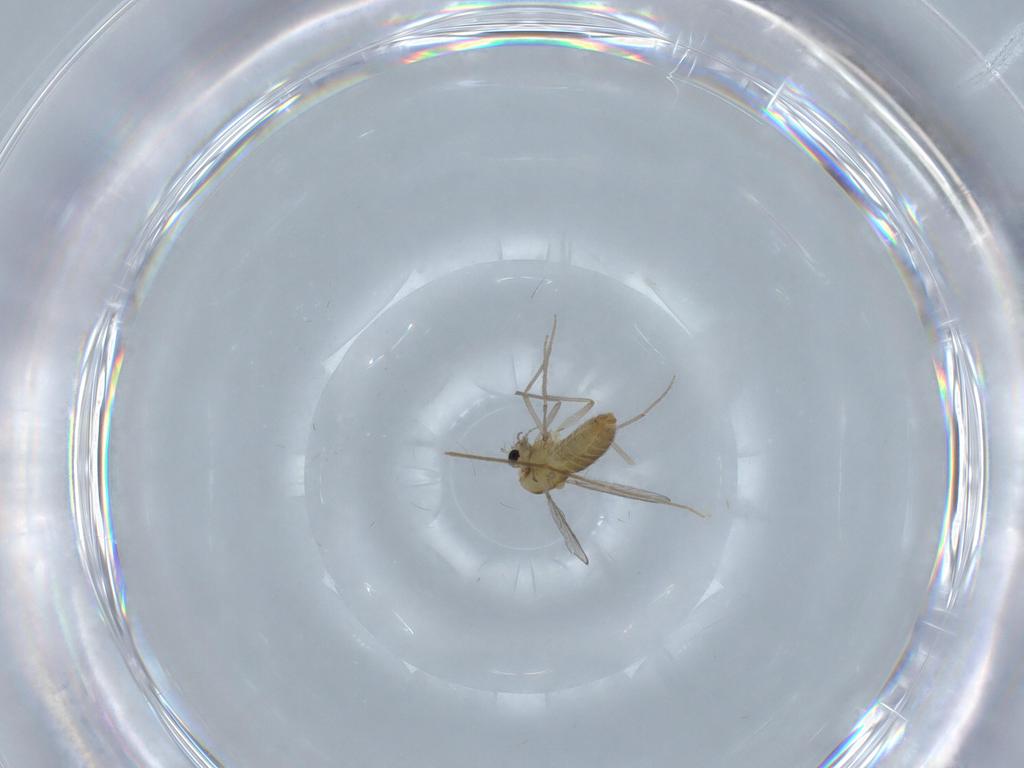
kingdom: Animalia
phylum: Arthropoda
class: Insecta
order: Diptera
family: Chironomidae
